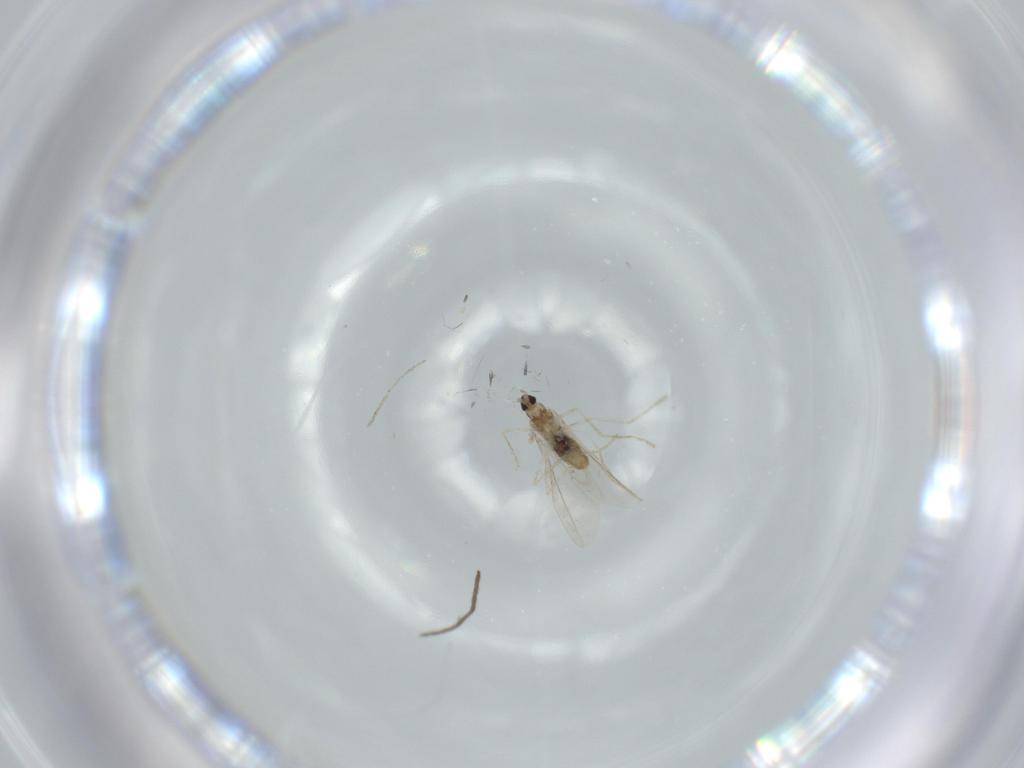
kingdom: Animalia
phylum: Arthropoda
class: Insecta
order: Diptera
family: Cecidomyiidae
